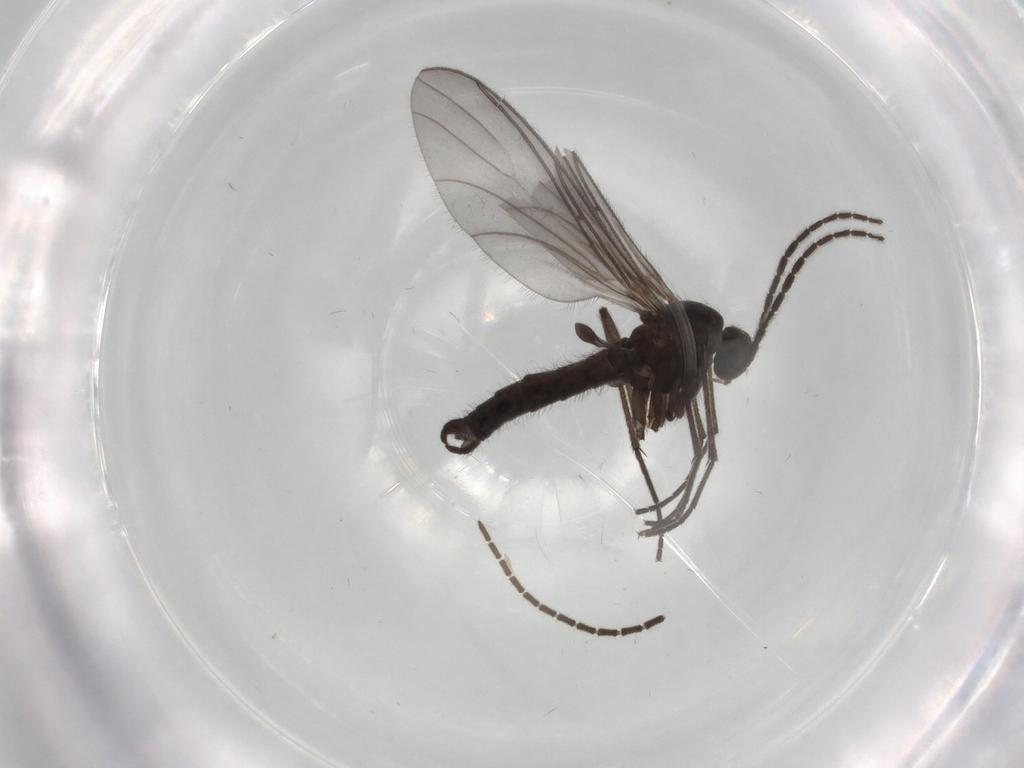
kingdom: Animalia
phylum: Arthropoda
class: Insecta
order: Diptera
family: Sciaridae
